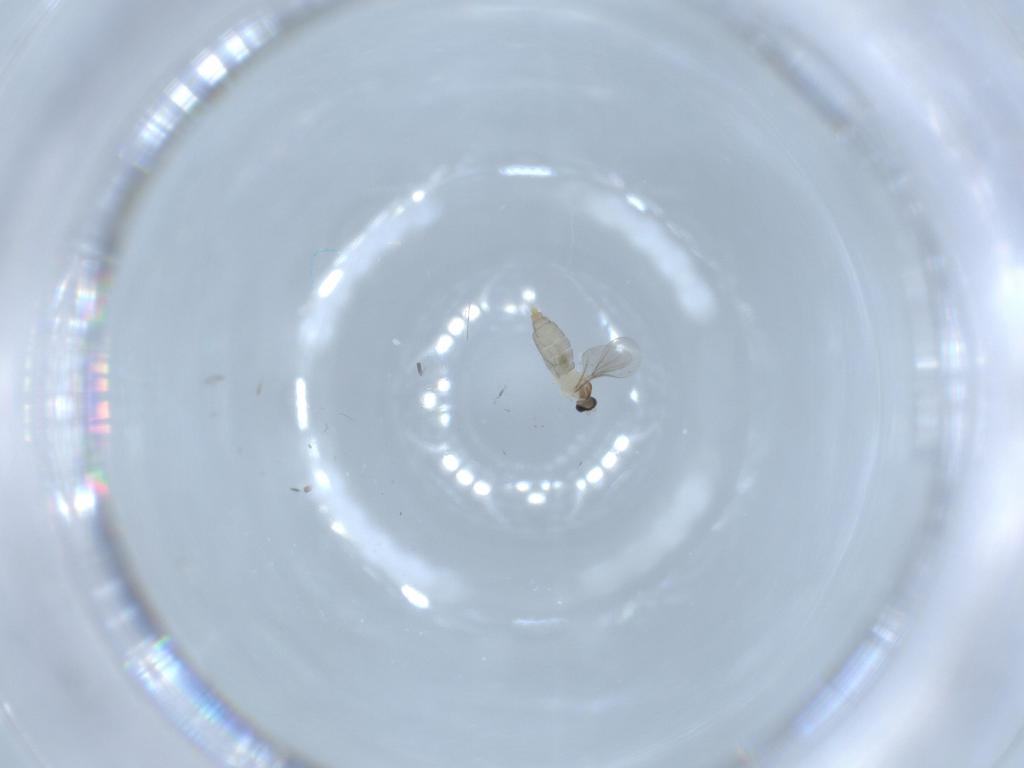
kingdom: Animalia
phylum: Arthropoda
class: Insecta
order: Diptera
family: Psychodidae
